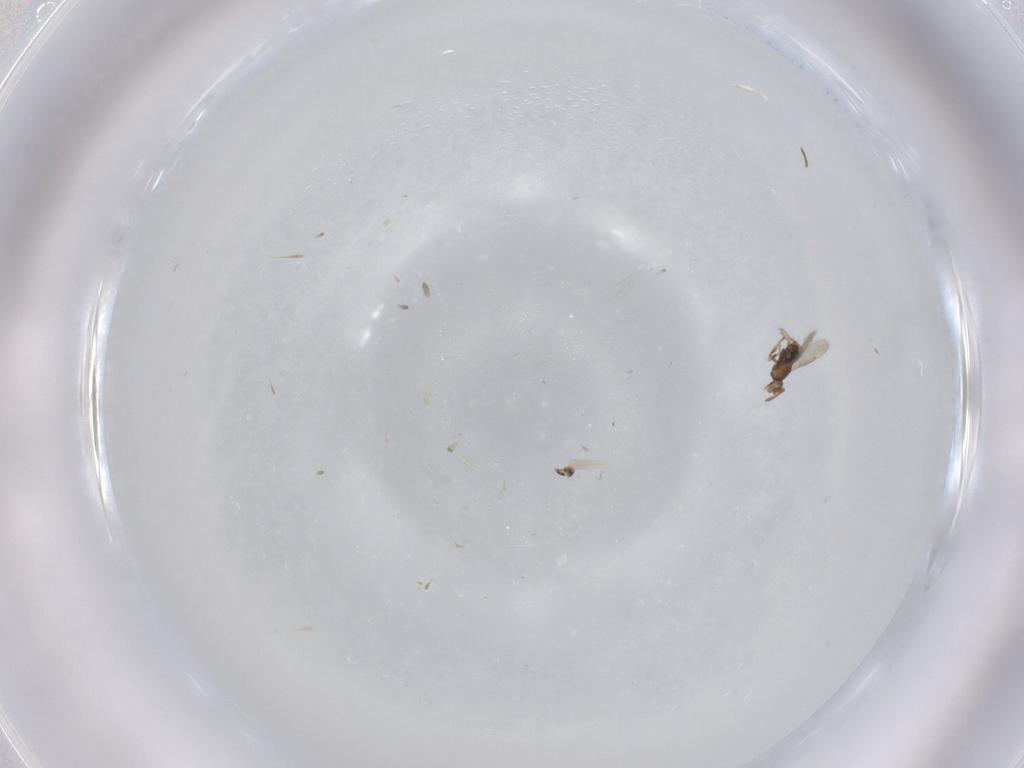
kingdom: Animalia
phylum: Arthropoda
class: Insecta
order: Hymenoptera
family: Aphelinidae
